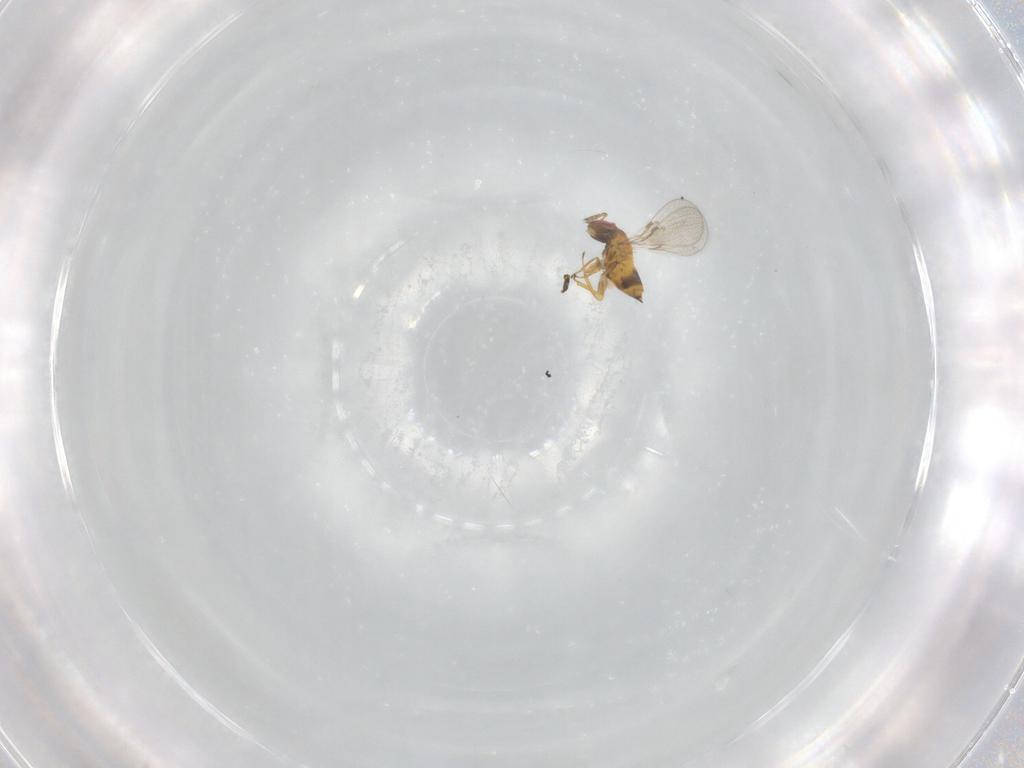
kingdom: Animalia
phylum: Arthropoda
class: Insecta
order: Hymenoptera
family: Trichogrammatidae
